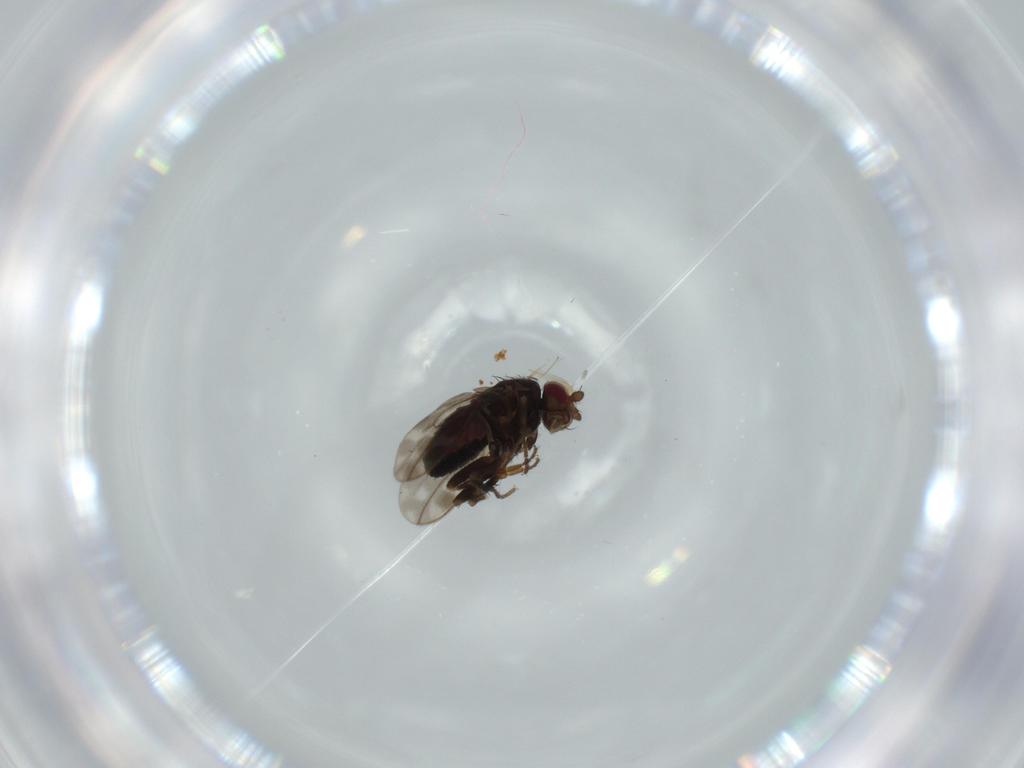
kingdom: Animalia
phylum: Arthropoda
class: Insecta
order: Diptera
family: Sphaeroceridae
